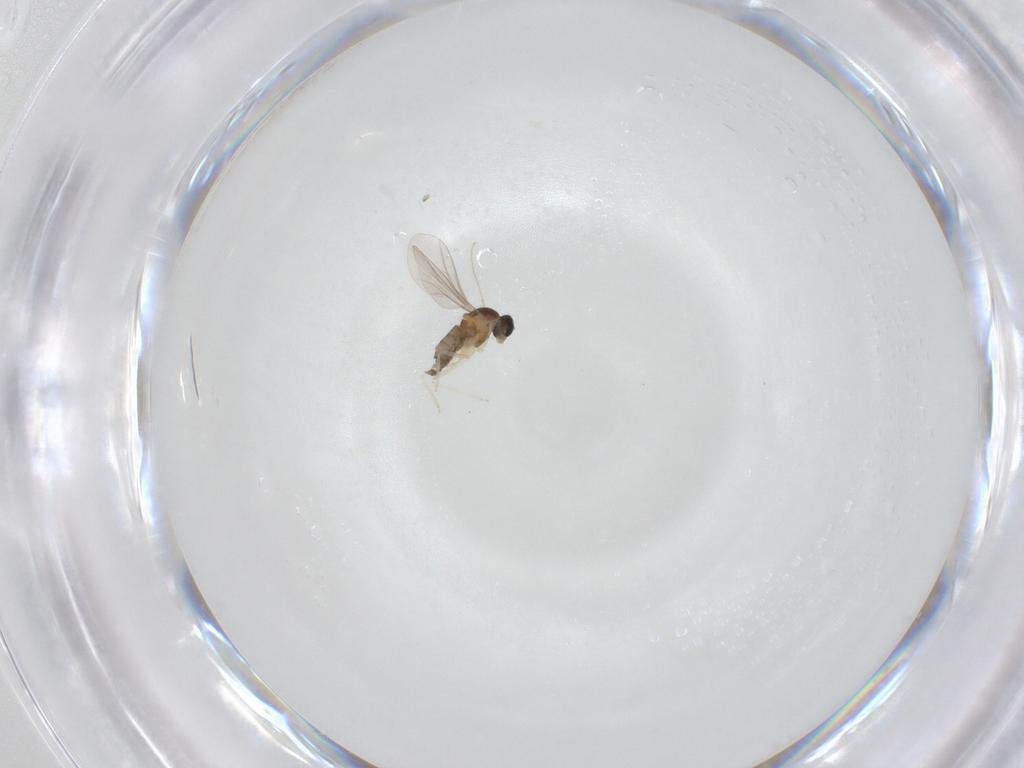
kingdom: Animalia
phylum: Arthropoda
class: Insecta
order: Diptera
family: Cecidomyiidae
